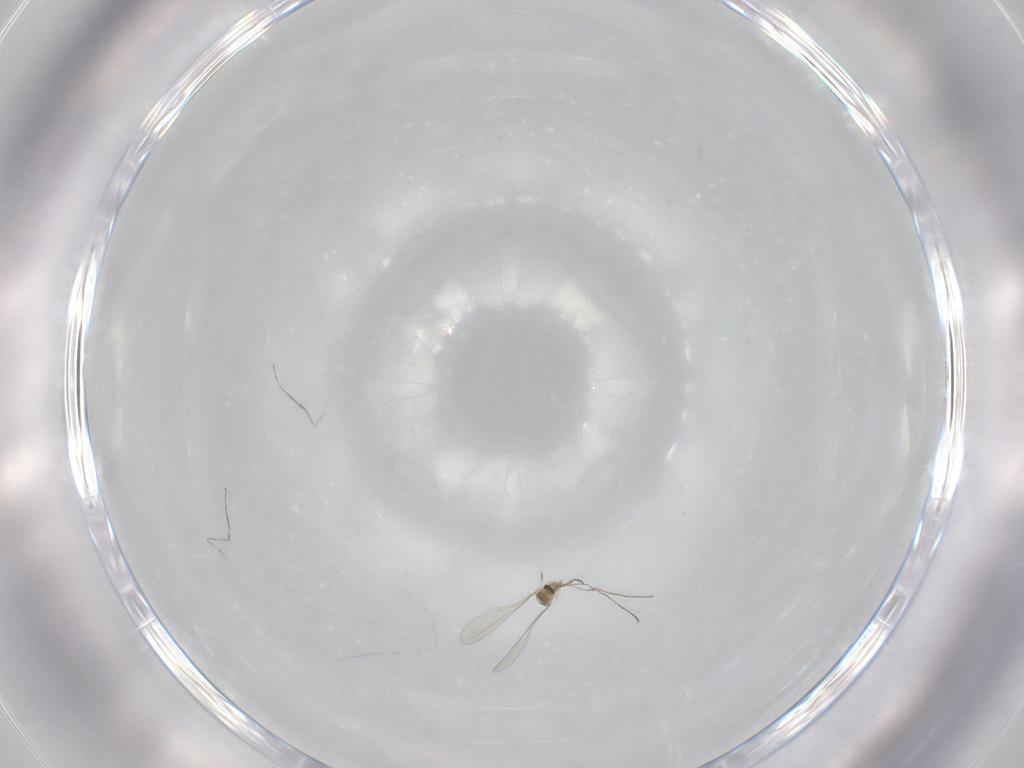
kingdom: Animalia
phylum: Arthropoda
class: Insecta
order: Diptera
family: Cecidomyiidae
